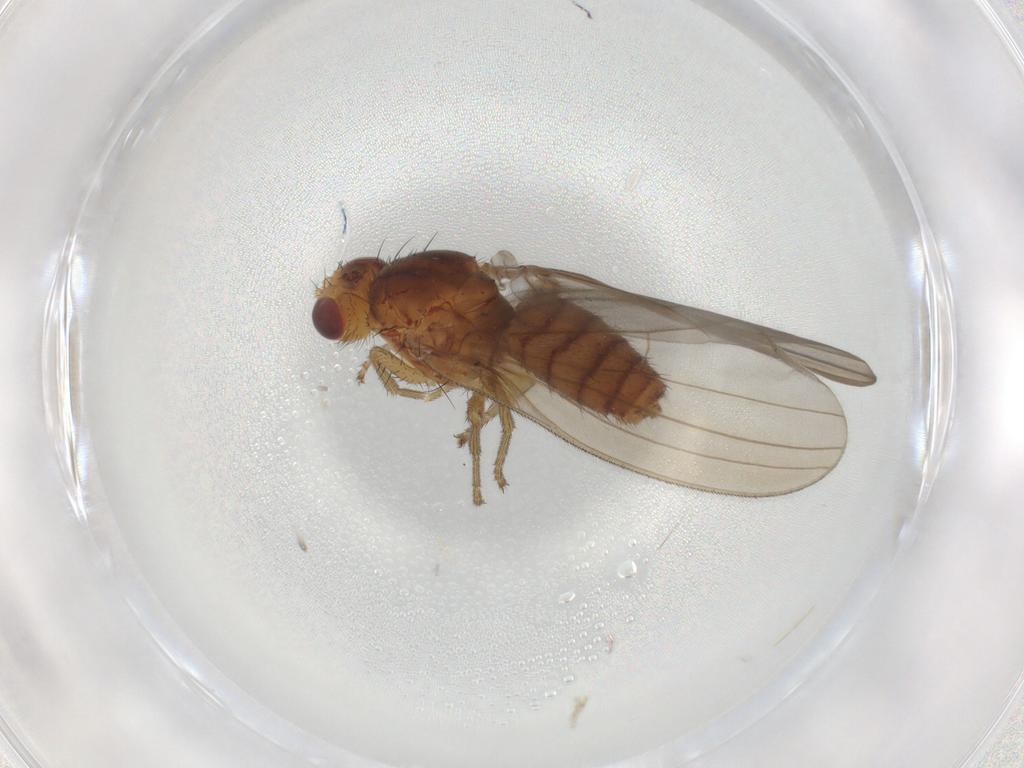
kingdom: Animalia
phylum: Arthropoda
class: Insecta
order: Diptera
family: Natalimyzidae
